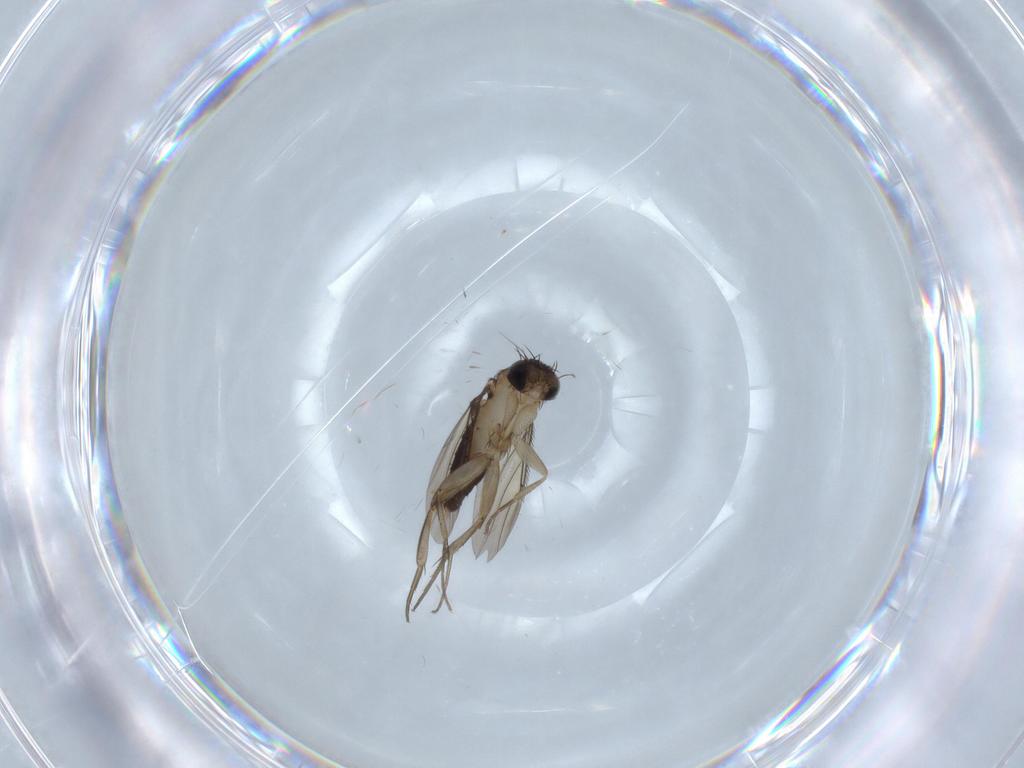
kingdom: Animalia
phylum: Arthropoda
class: Insecta
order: Diptera
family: Phoridae
